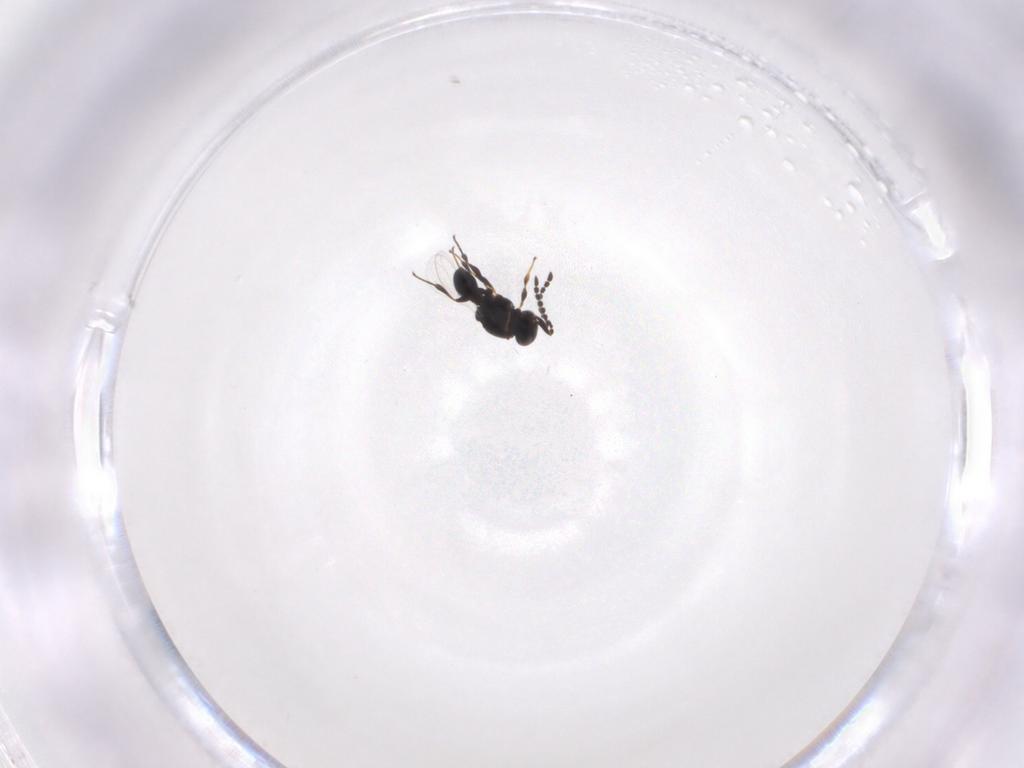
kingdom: Animalia
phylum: Arthropoda
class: Insecta
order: Hymenoptera
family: Platygastridae
